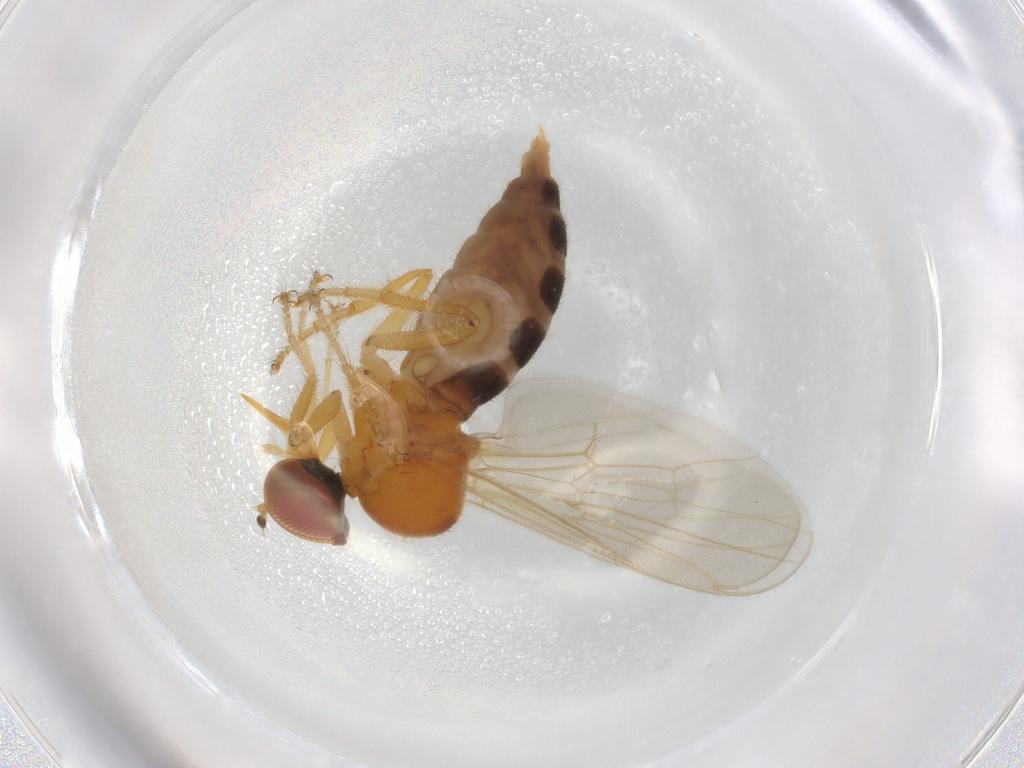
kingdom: Animalia
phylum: Arthropoda
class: Insecta
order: Diptera
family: Hybotidae
